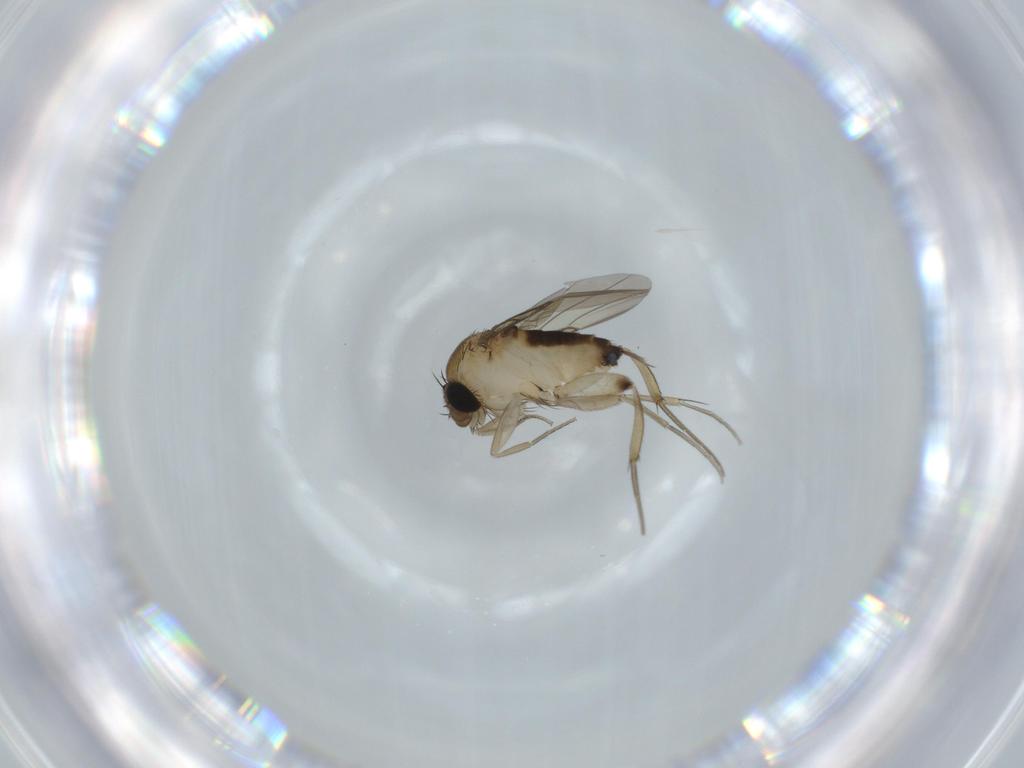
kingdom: Animalia
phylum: Arthropoda
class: Insecta
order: Diptera
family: Phoridae
